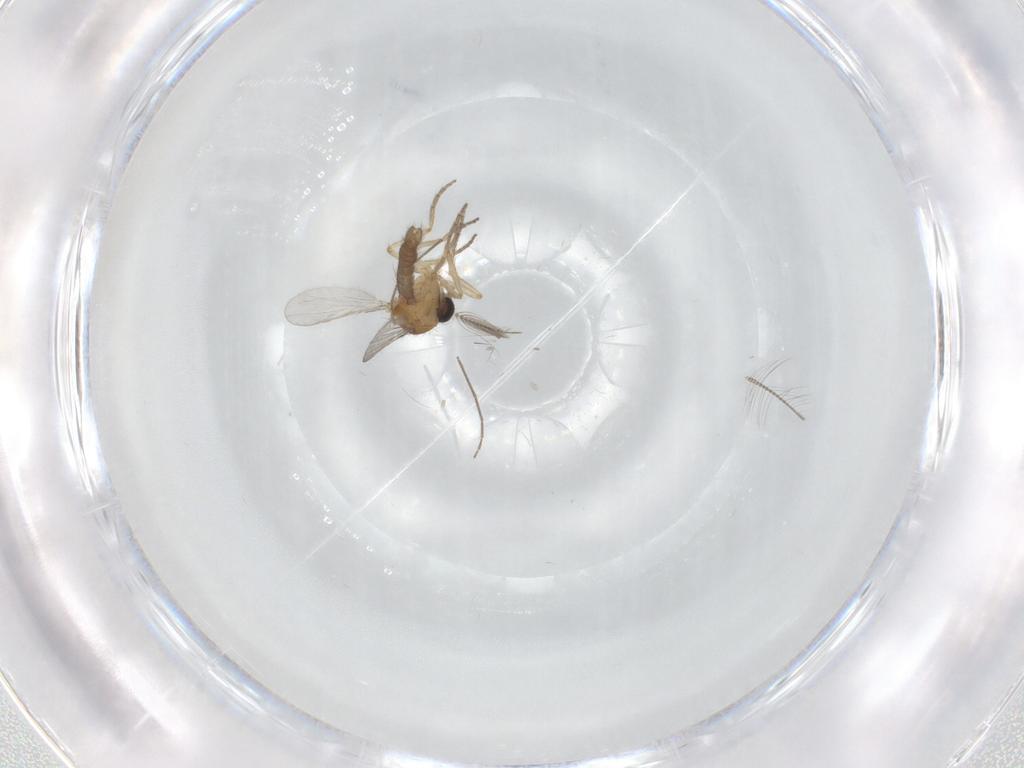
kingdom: Animalia
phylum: Arthropoda
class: Insecta
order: Diptera
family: Ceratopogonidae
